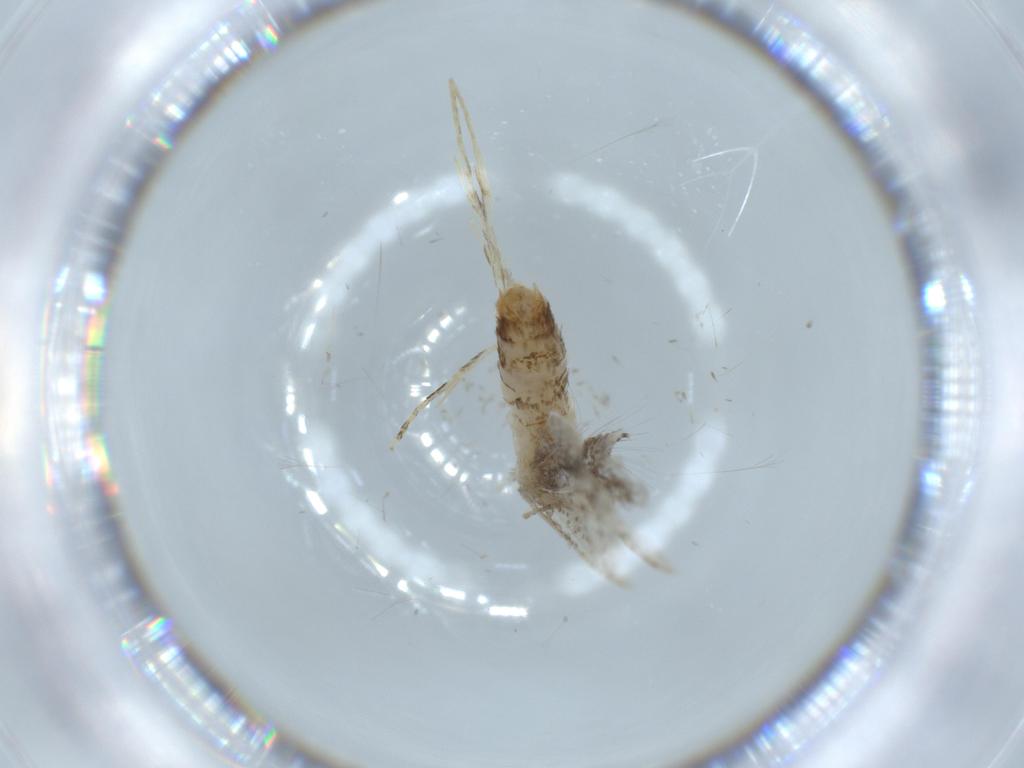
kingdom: Animalia
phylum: Arthropoda
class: Insecta
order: Lepidoptera
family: Tineidae
